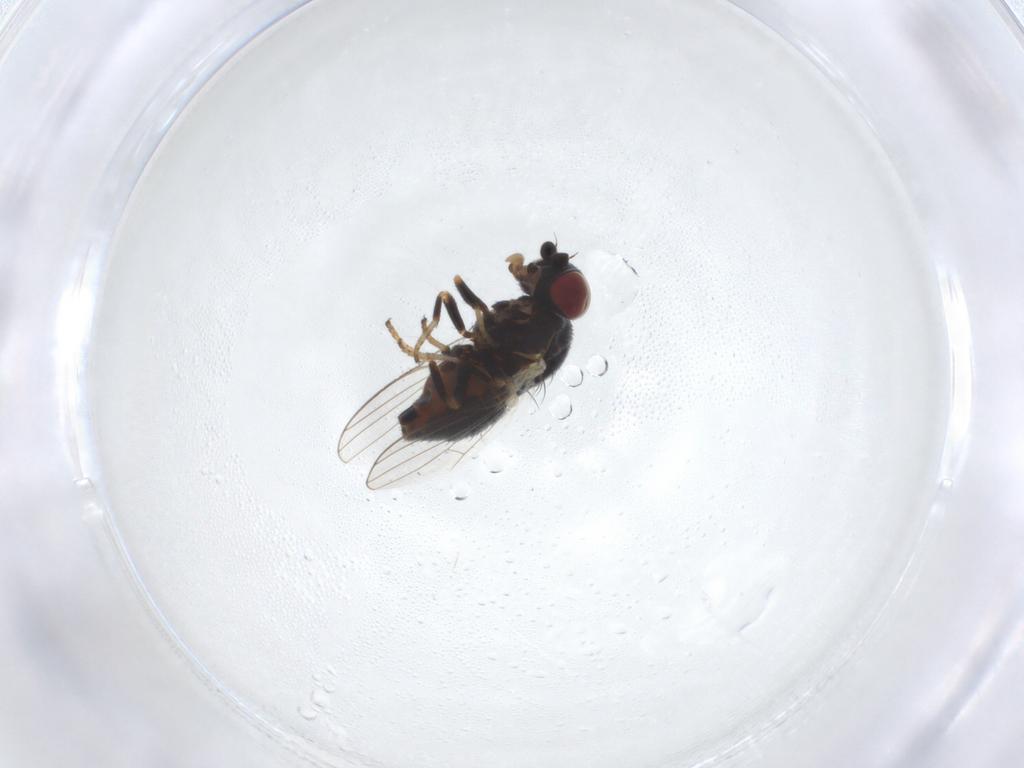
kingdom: Animalia
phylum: Arthropoda
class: Insecta
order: Diptera
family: Chamaemyiidae
